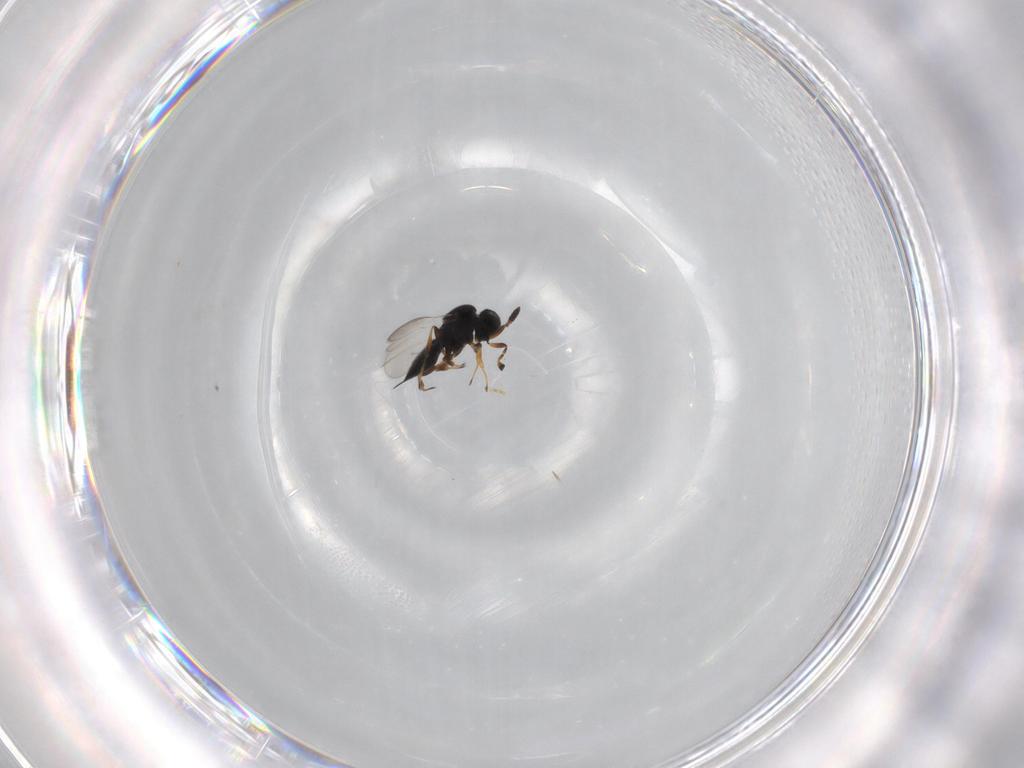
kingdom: Animalia
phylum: Arthropoda
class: Insecta
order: Hymenoptera
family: Scelionidae
